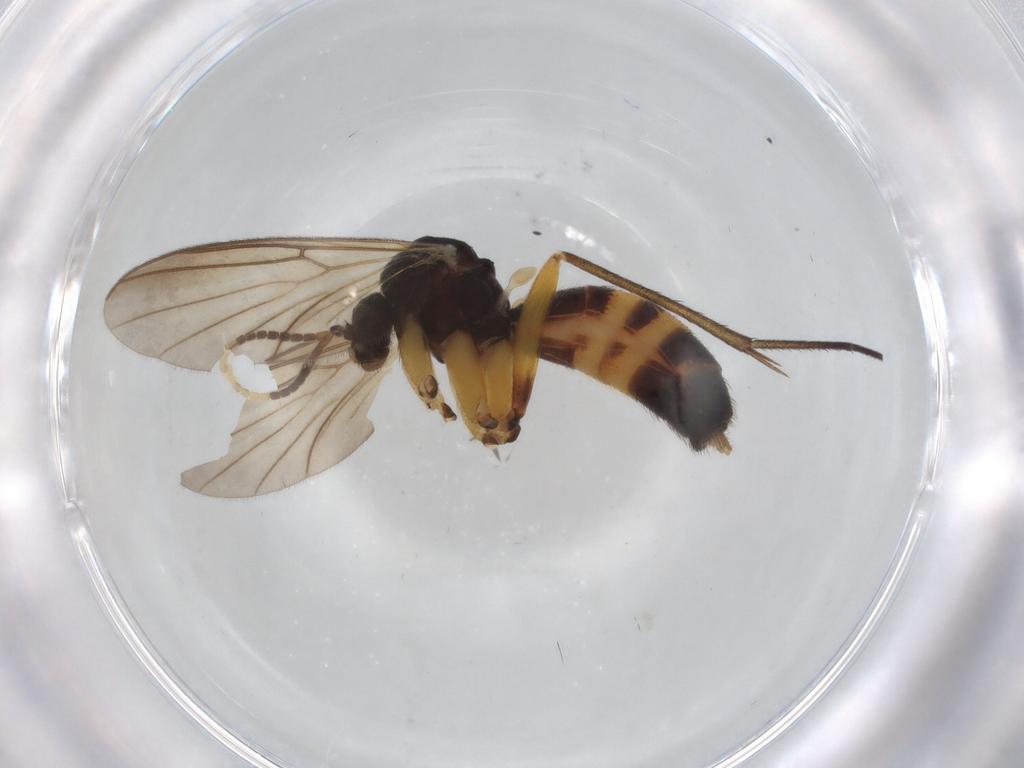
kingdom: Animalia
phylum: Arthropoda
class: Insecta
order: Diptera
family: Mycetophilidae
